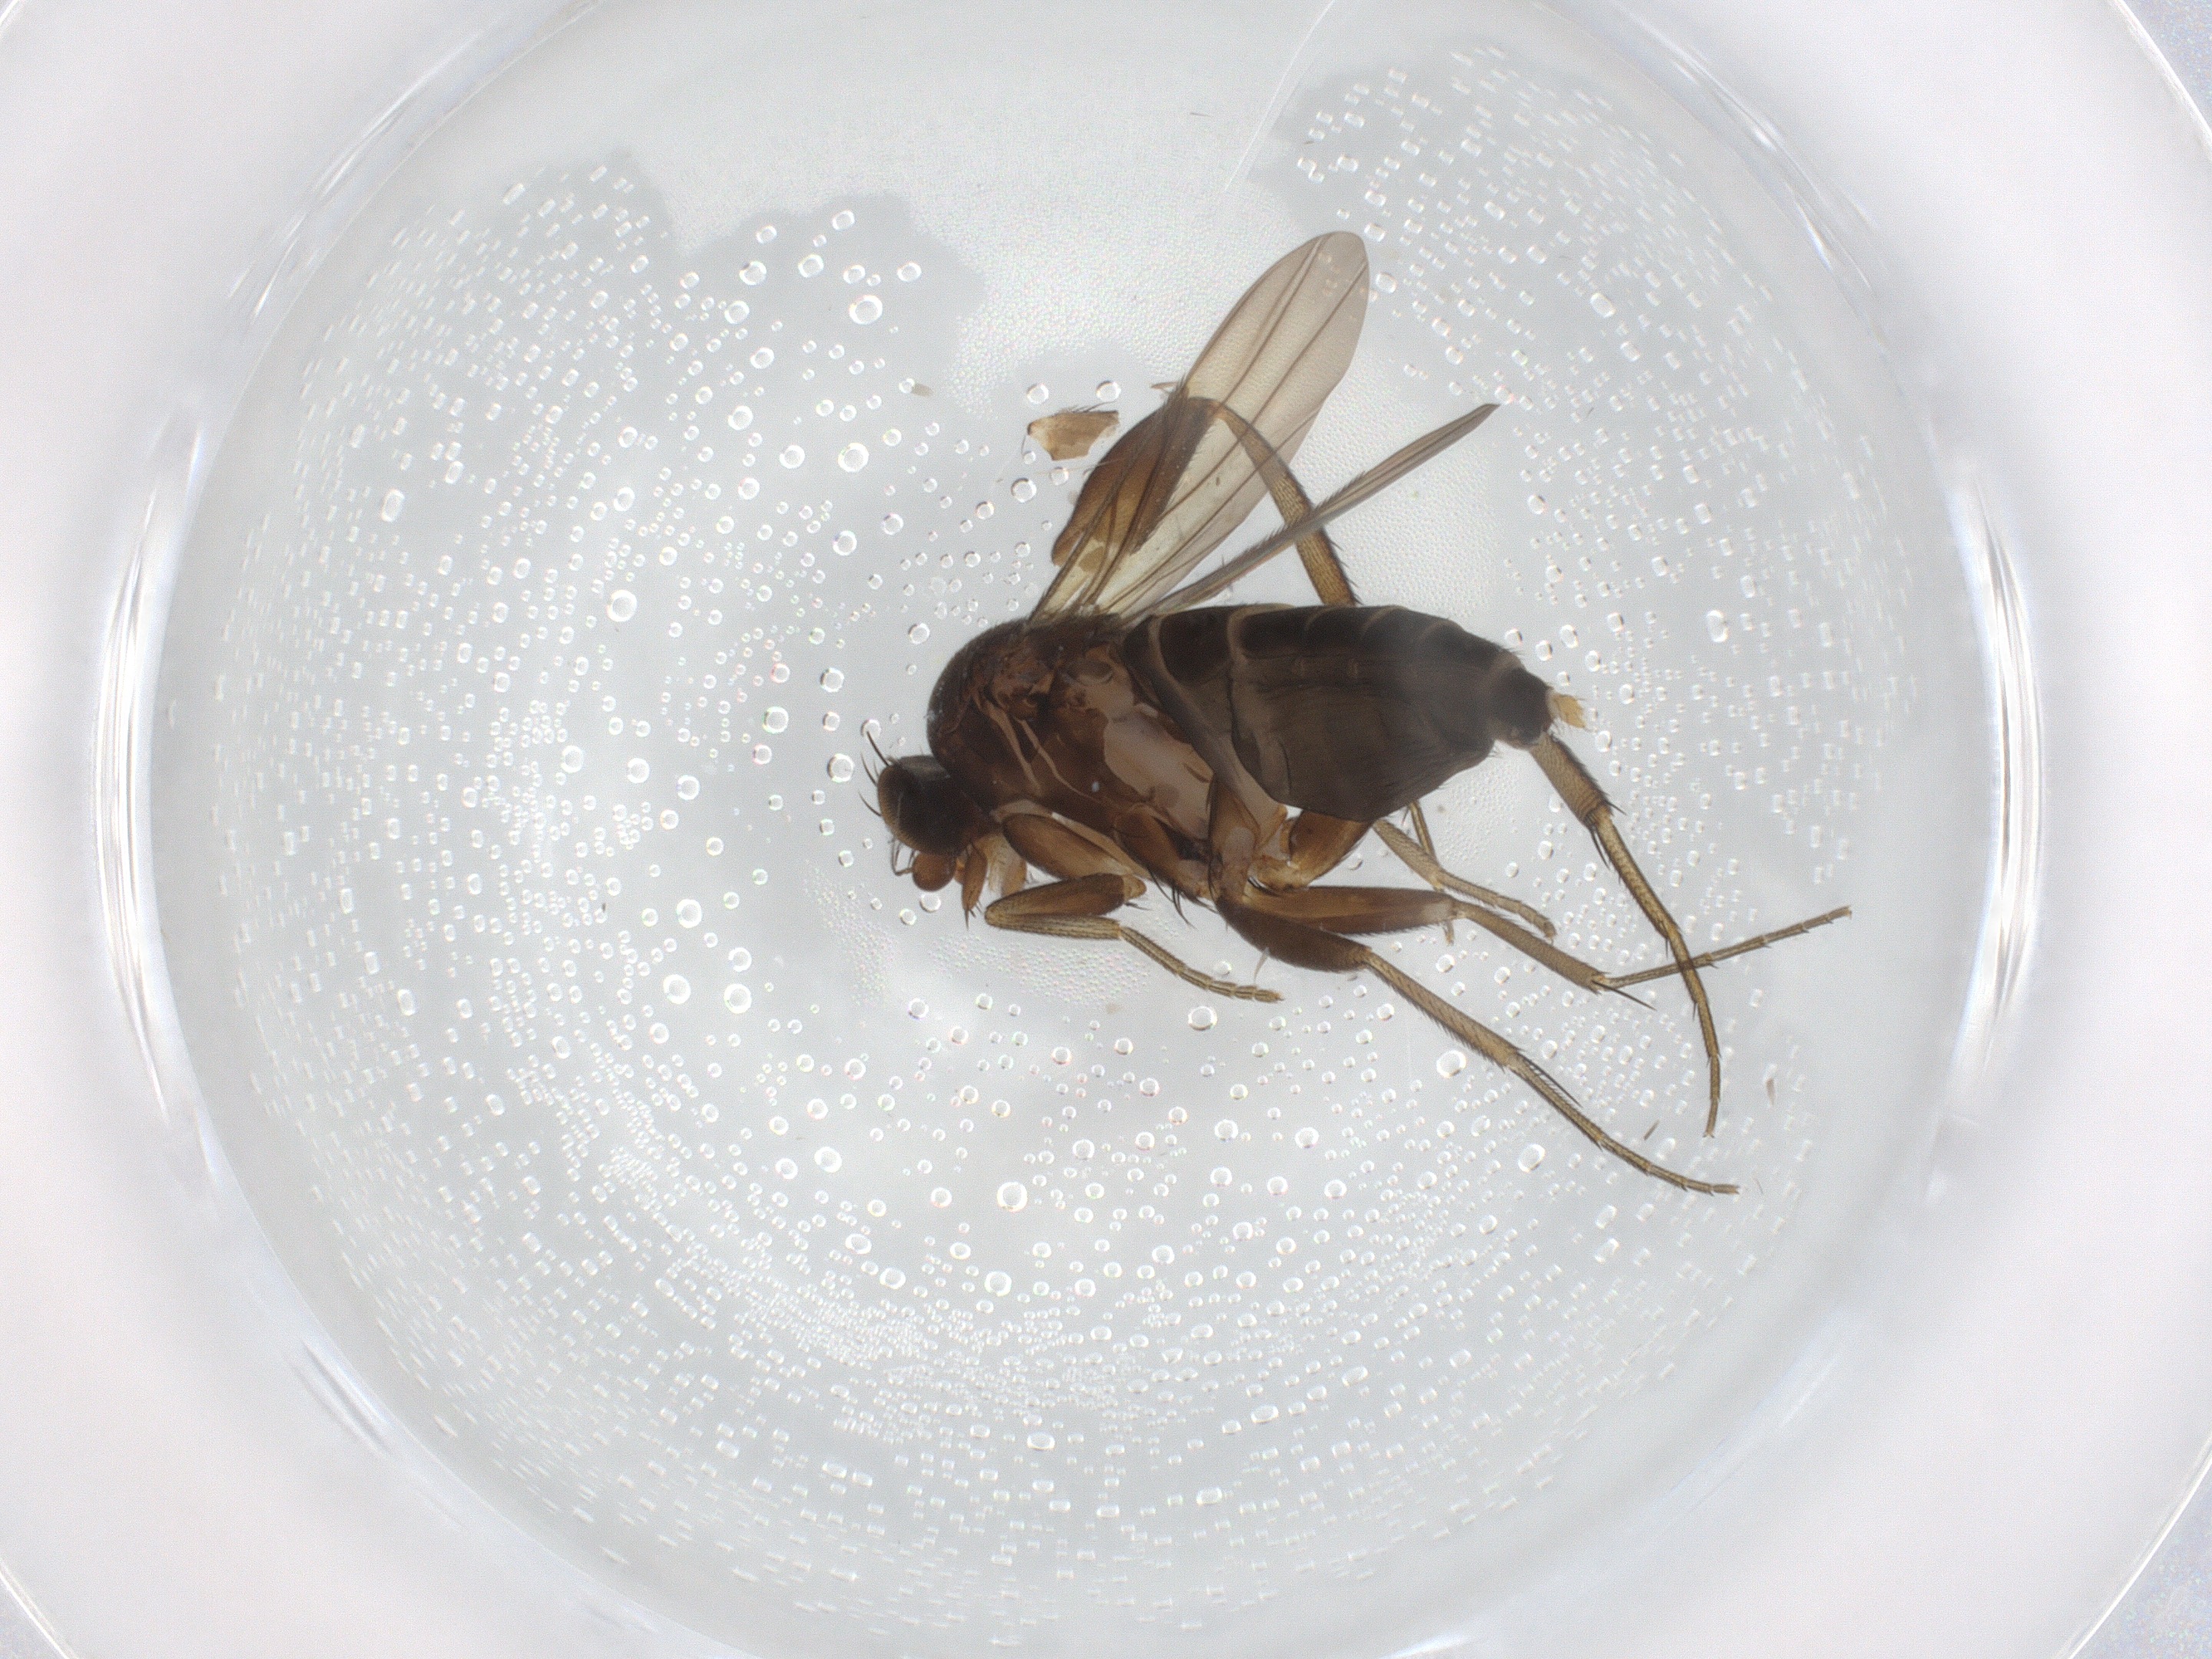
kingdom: Animalia
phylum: Arthropoda
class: Insecta
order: Diptera
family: Phoridae
